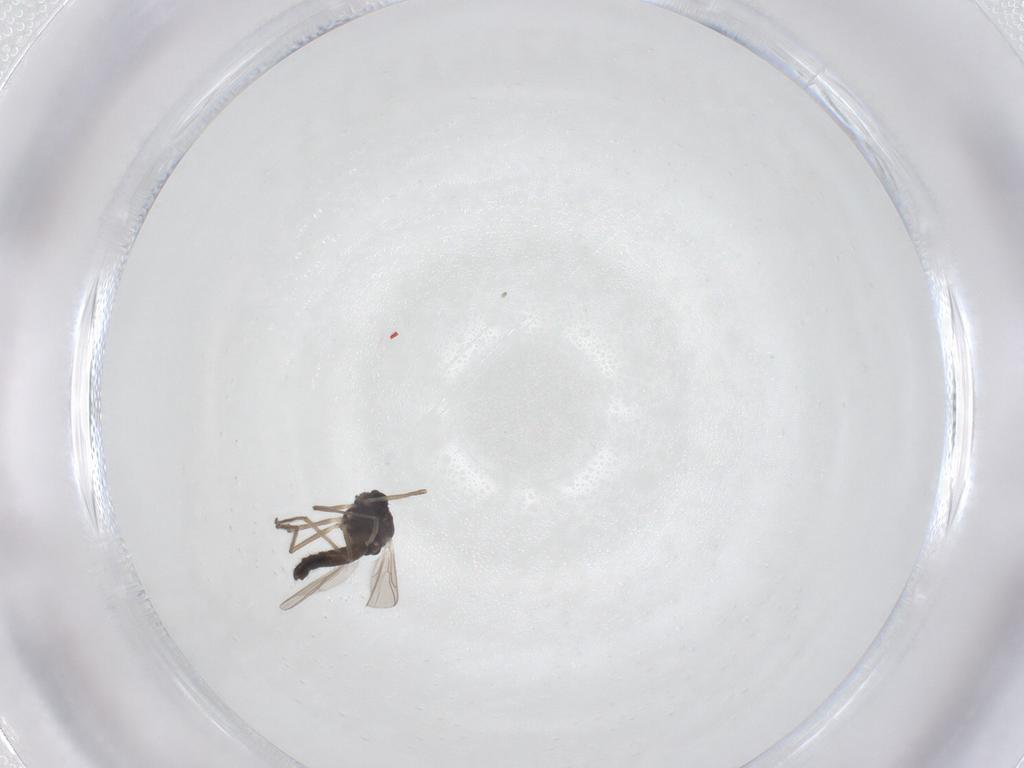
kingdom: Animalia
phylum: Arthropoda
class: Insecta
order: Diptera
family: Chironomidae
